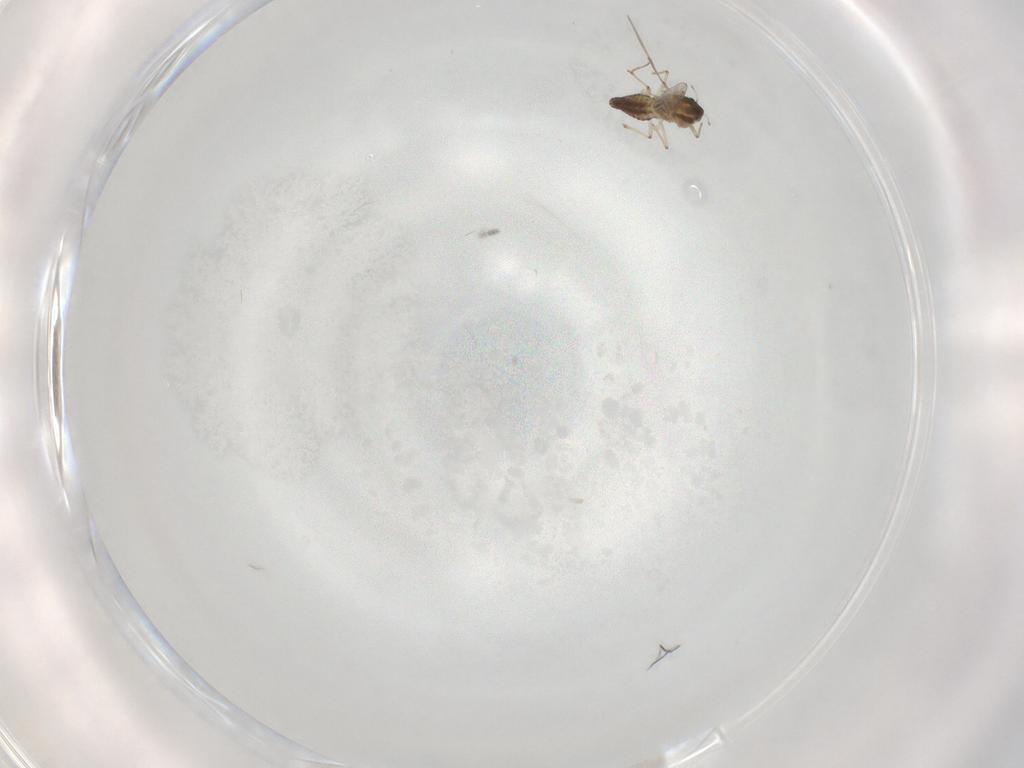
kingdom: Animalia
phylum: Arthropoda
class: Insecta
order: Diptera
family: Chironomidae
